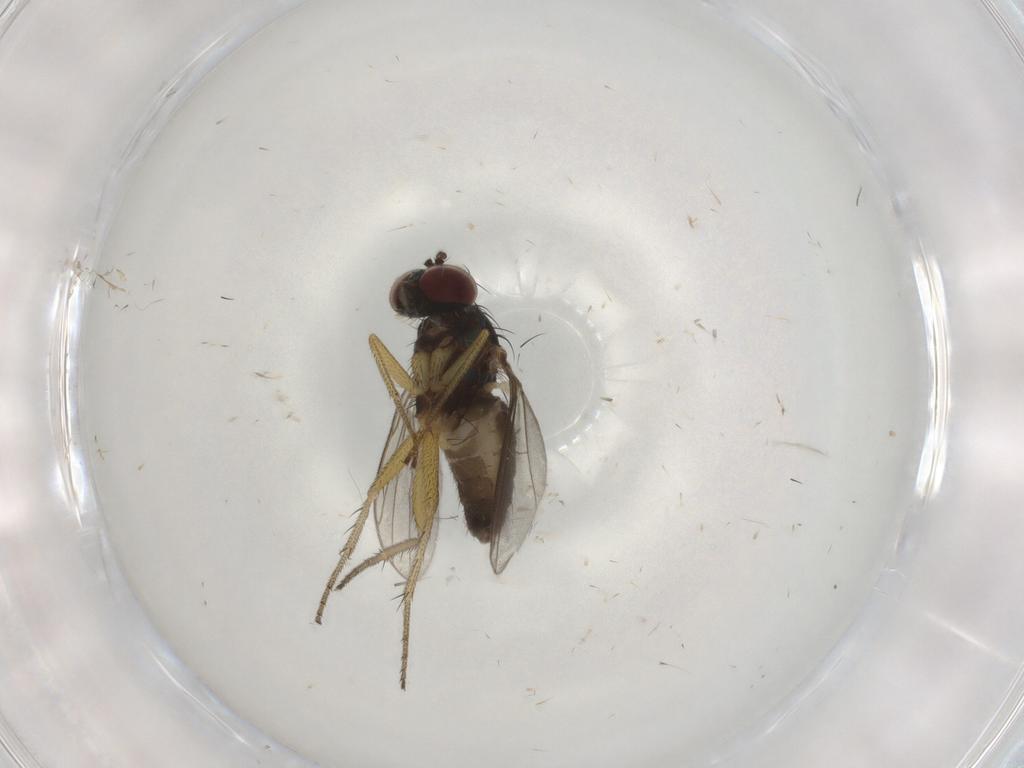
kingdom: Animalia
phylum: Arthropoda
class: Insecta
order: Diptera
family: Dolichopodidae
